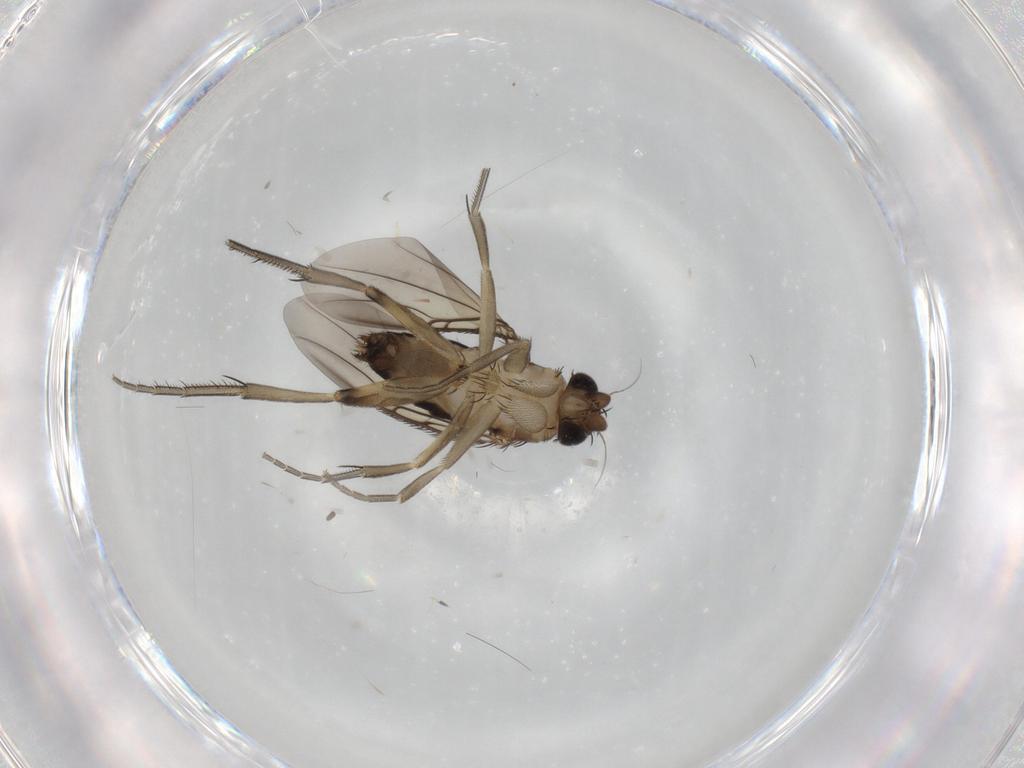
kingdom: Animalia
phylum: Arthropoda
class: Insecta
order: Diptera
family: Phoridae
